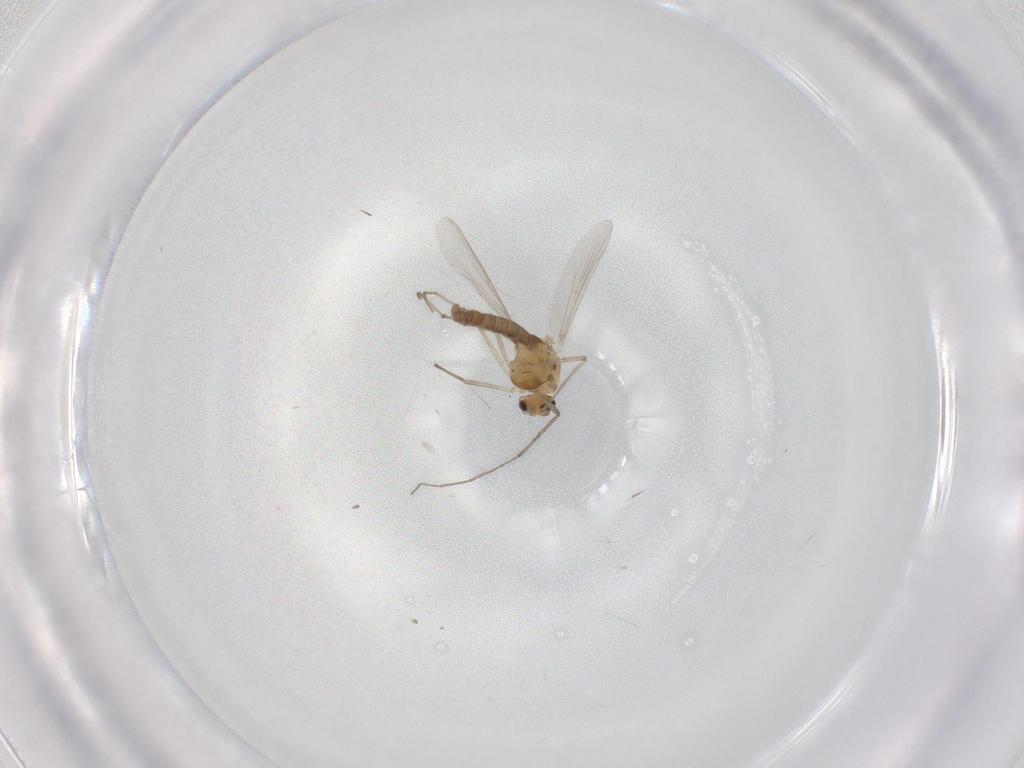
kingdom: Animalia
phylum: Arthropoda
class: Insecta
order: Diptera
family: Chironomidae
